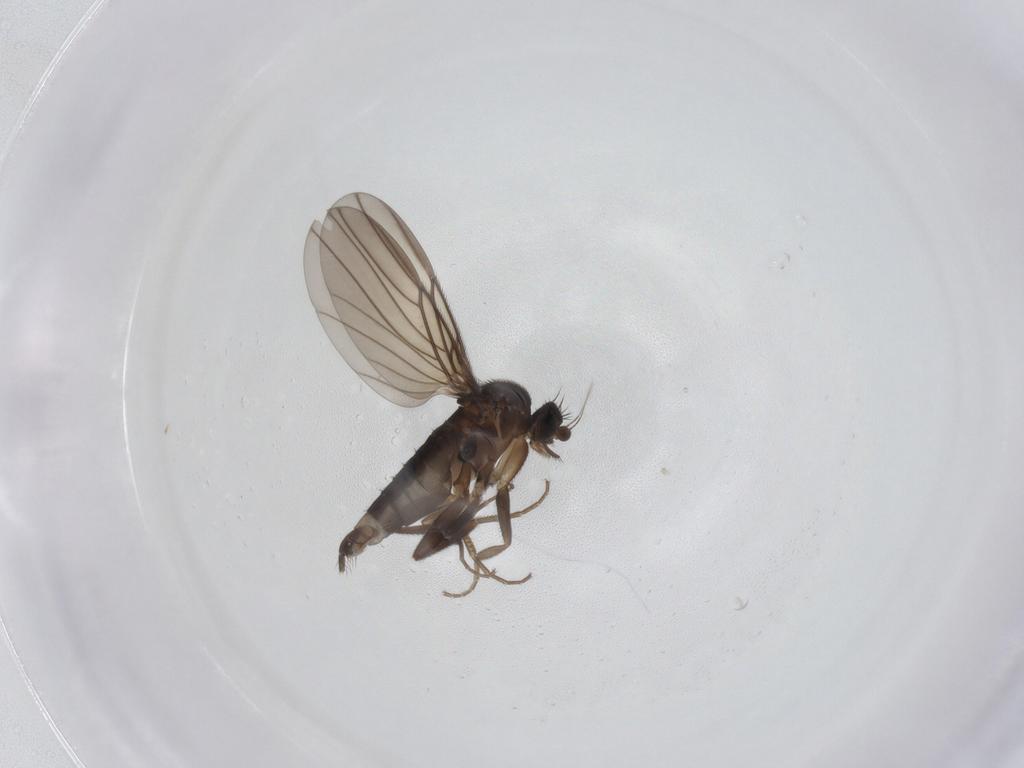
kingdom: Animalia
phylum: Arthropoda
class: Insecta
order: Diptera
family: Phoridae
